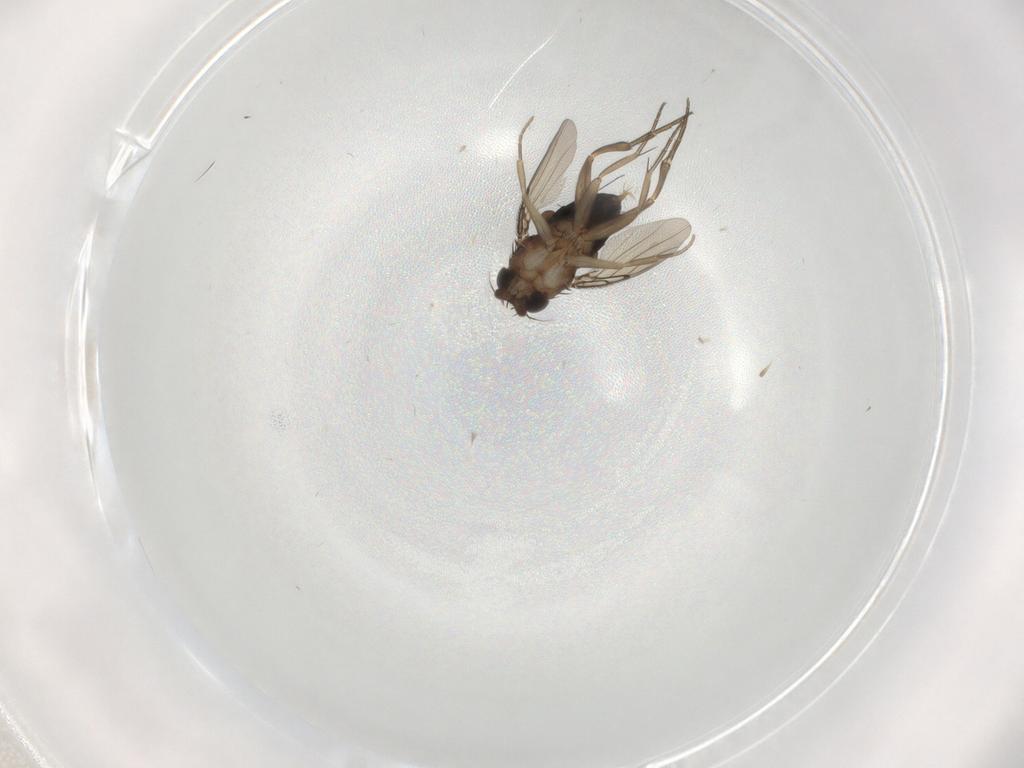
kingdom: Animalia
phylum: Arthropoda
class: Insecta
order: Diptera
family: Phoridae
